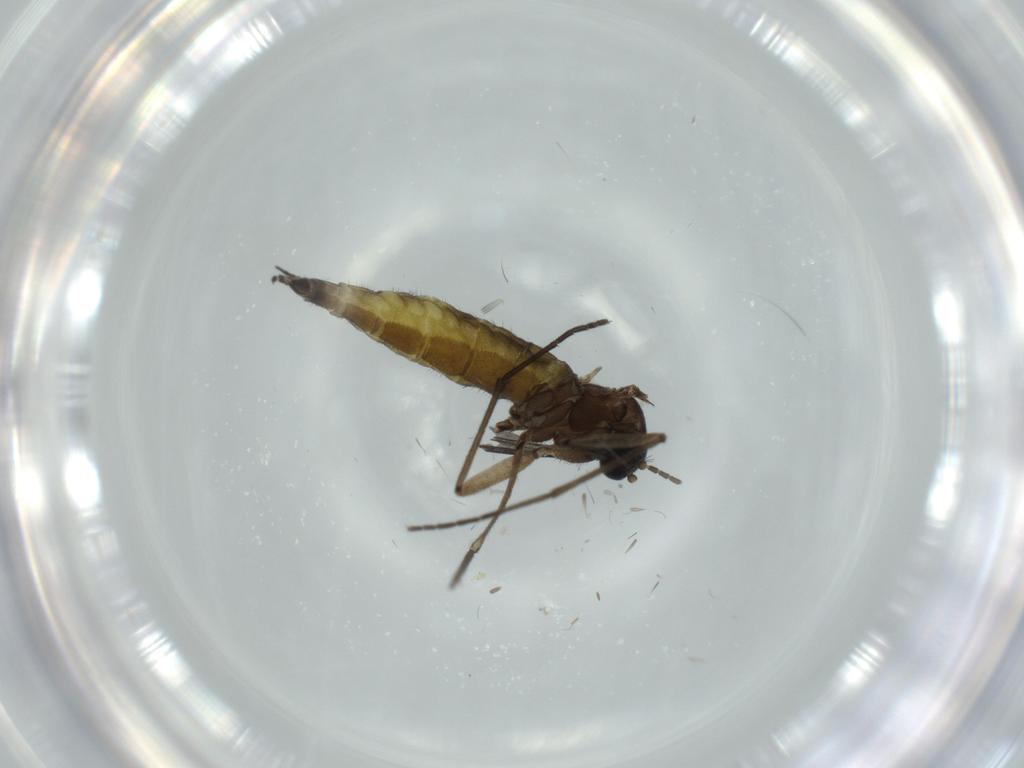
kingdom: Animalia
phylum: Arthropoda
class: Insecta
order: Diptera
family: Sciaridae
